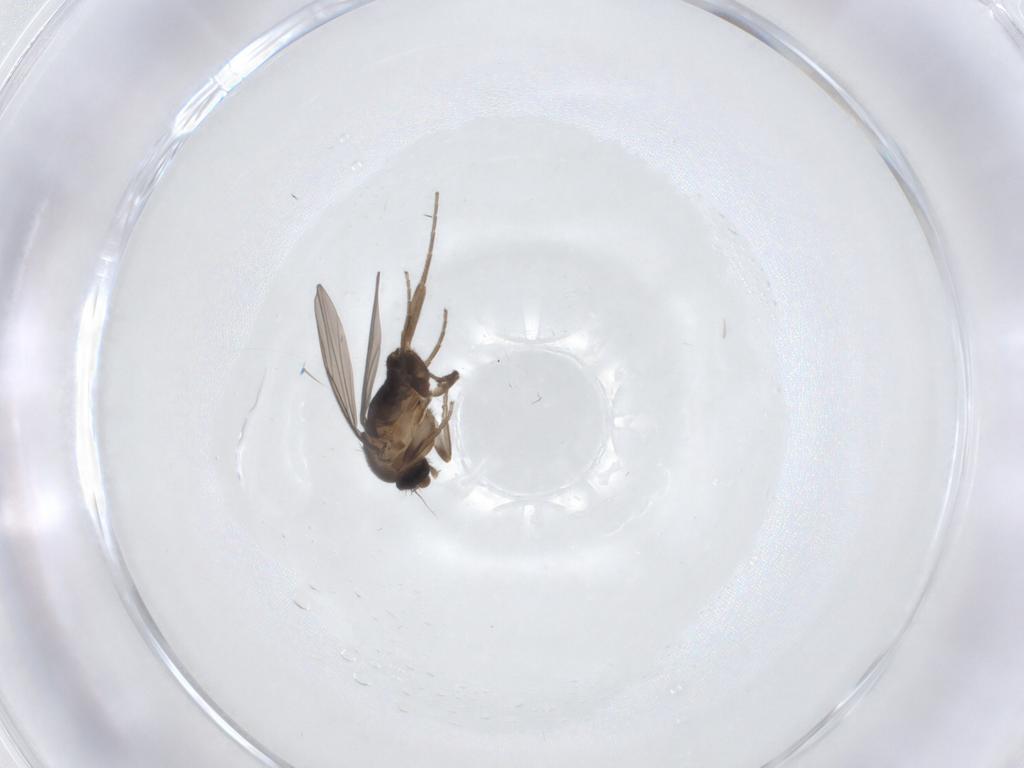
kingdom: Animalia
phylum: Arthropoda
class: Insecta
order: Diptera
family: Phoridae
